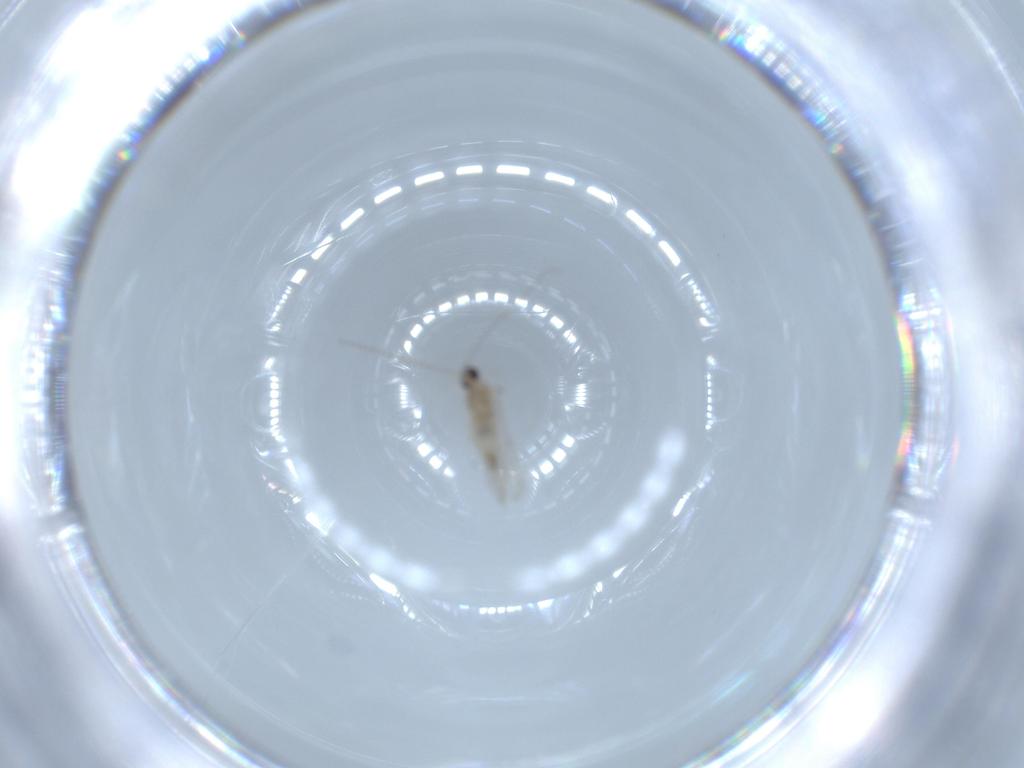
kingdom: Animalia
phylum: Arthropoda
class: Insecta
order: Diptera
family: Cecidomyiidae
